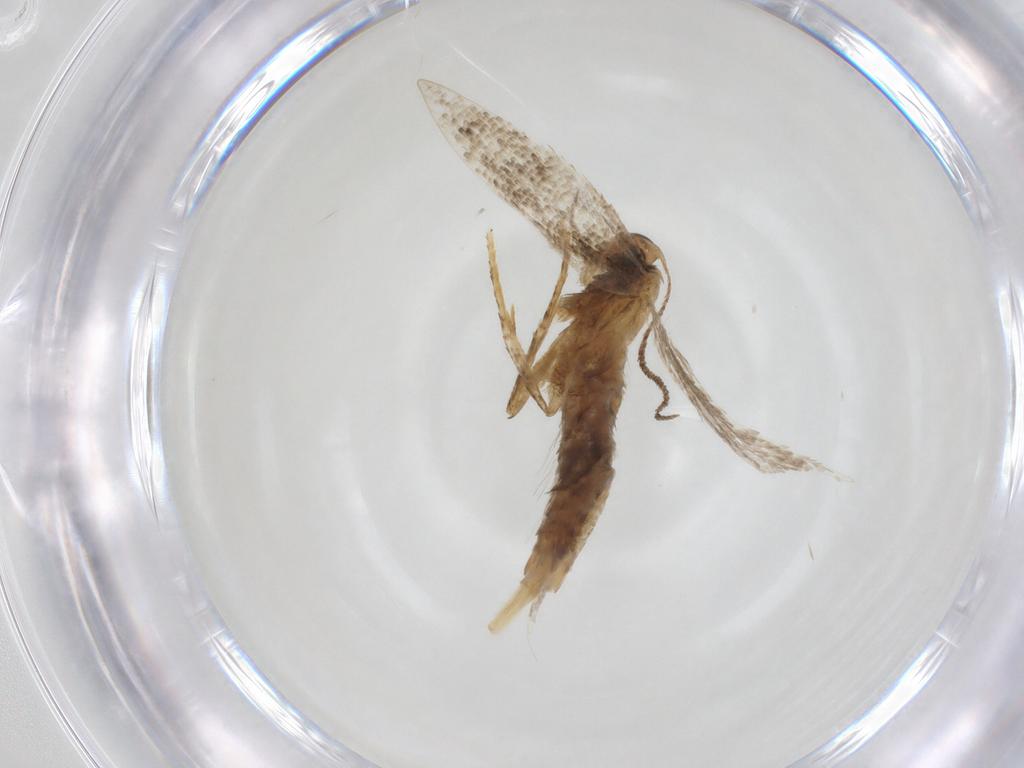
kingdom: Animalia
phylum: Arthropoda
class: Insecta
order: Lepidoptera
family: Gelechiidae
